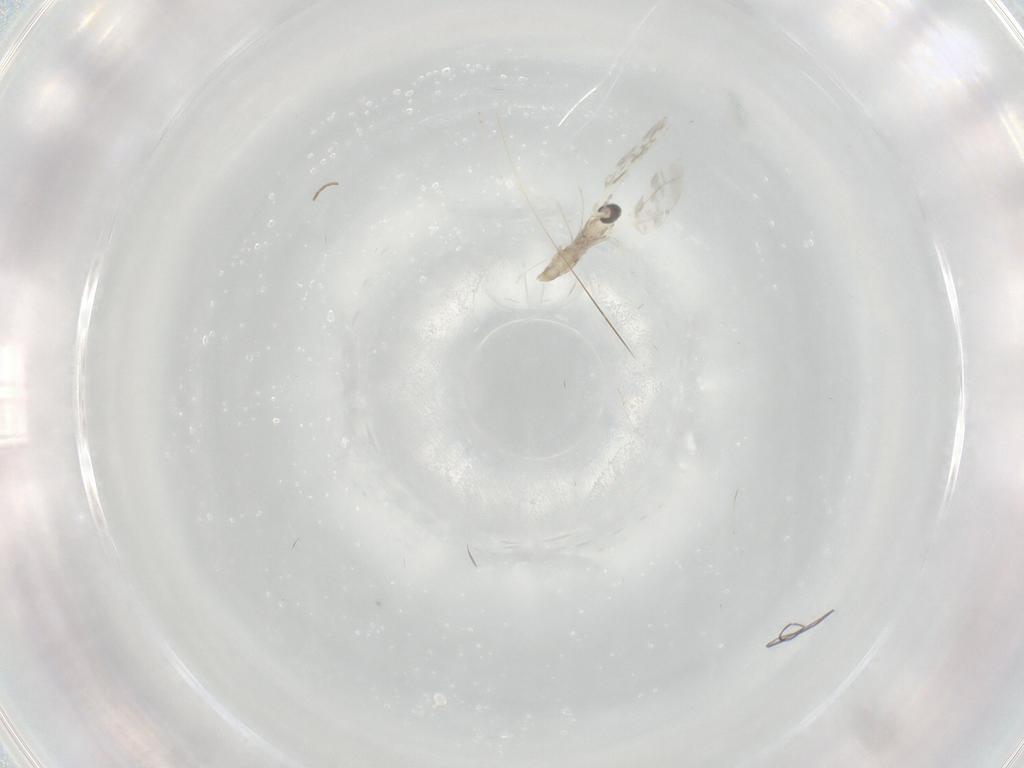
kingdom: Animalia
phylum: Arthropoda
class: Insecta
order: Diptera
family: Cecidomyiidae
